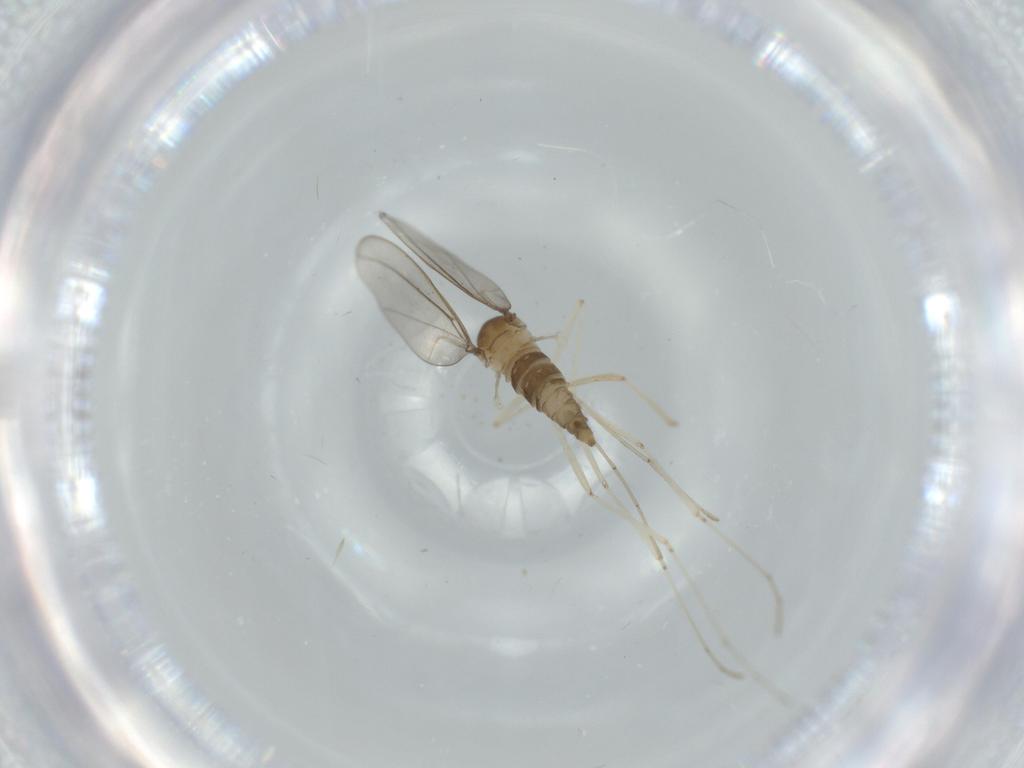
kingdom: Animalia
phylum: Arthropoda
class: Insecta
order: Diptera
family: Cecidomyiidae
